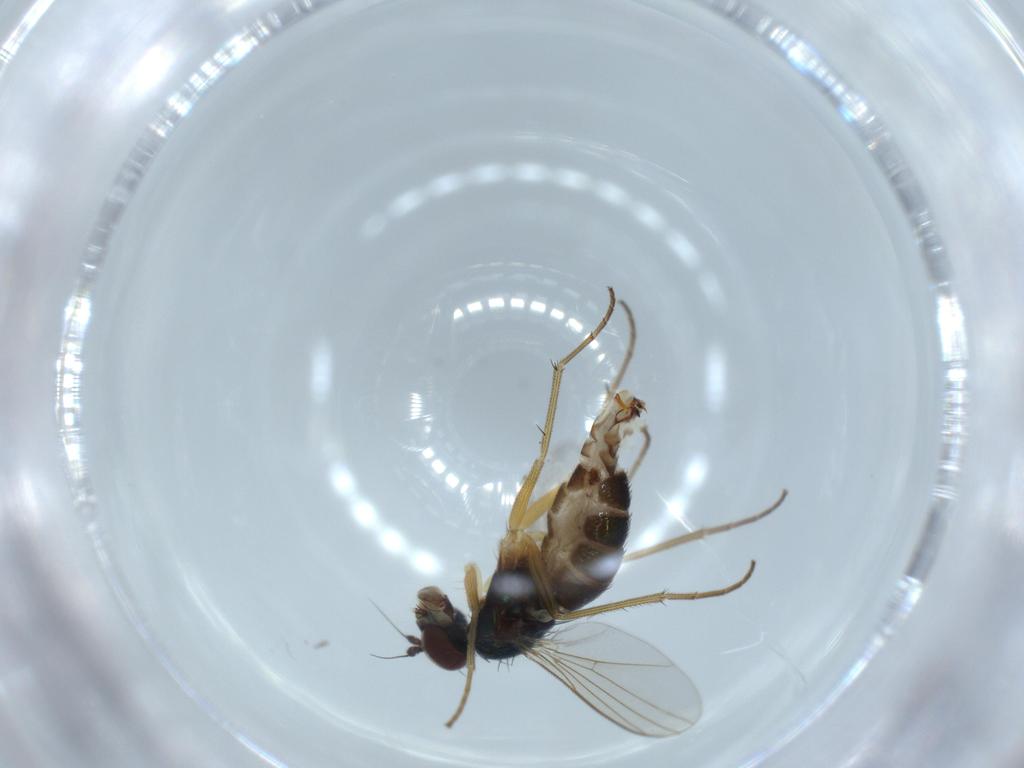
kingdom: Animalia
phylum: Arthropoda
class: Insecta
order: Diptera
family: Dolichopodidae
